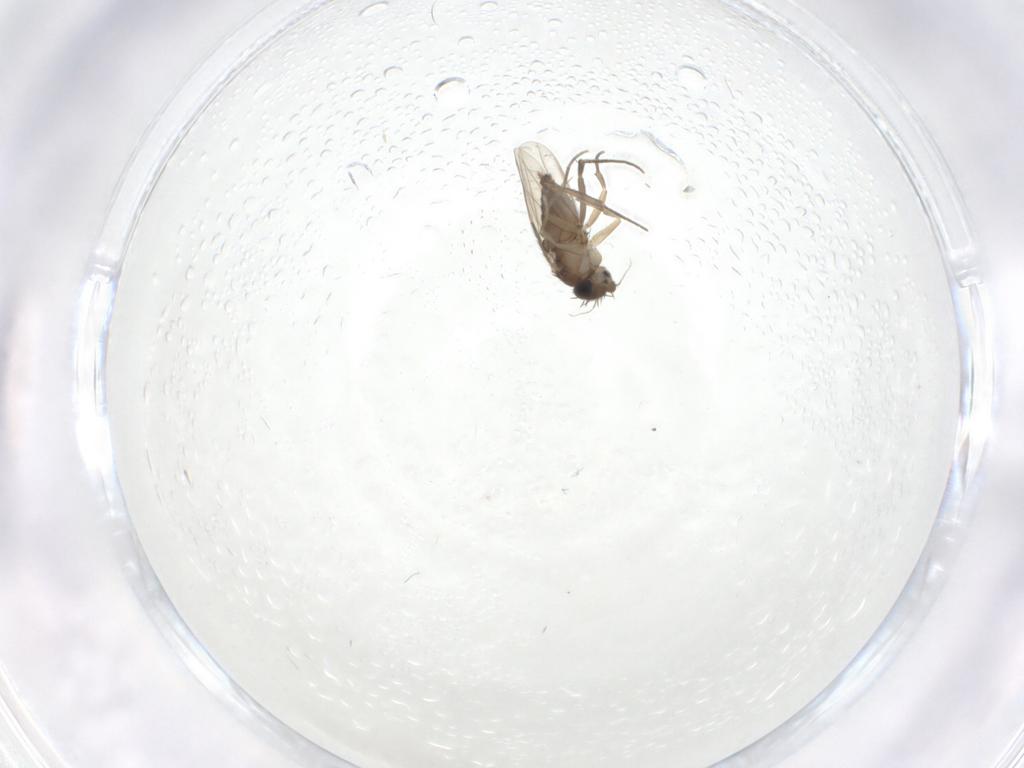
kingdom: Animalia
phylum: Arthropoda
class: Insecta
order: Diptera
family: Phoridae
